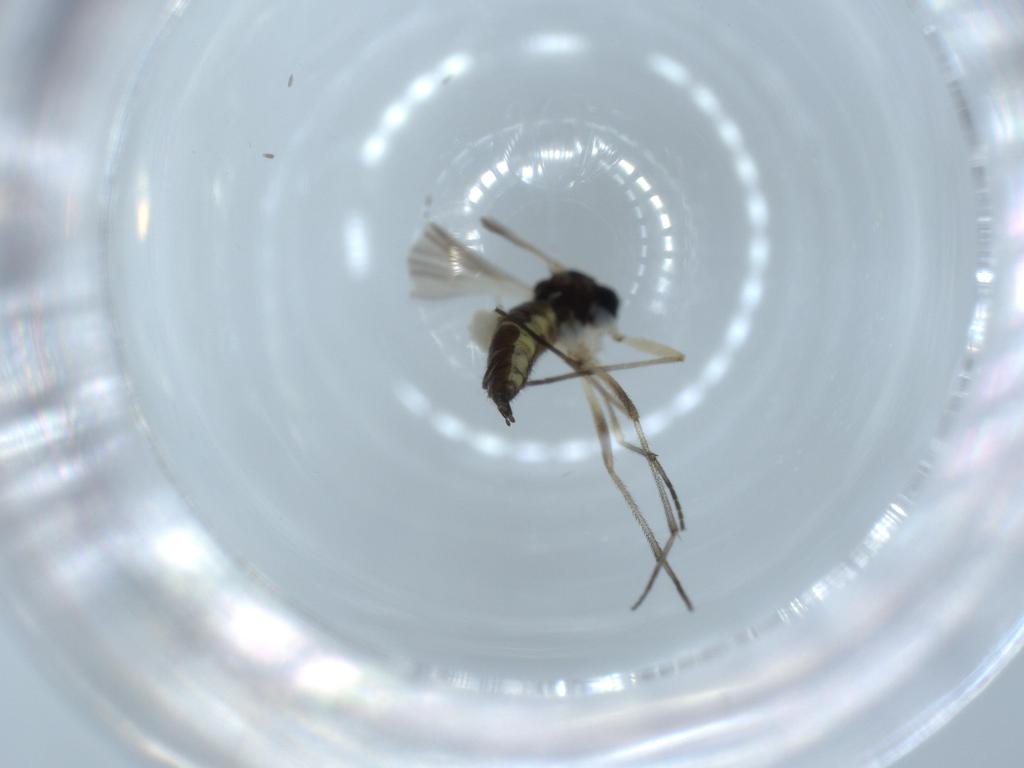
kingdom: Animalia
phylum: Arthropoda
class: Insecta
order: Diptera
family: Sciaridae
